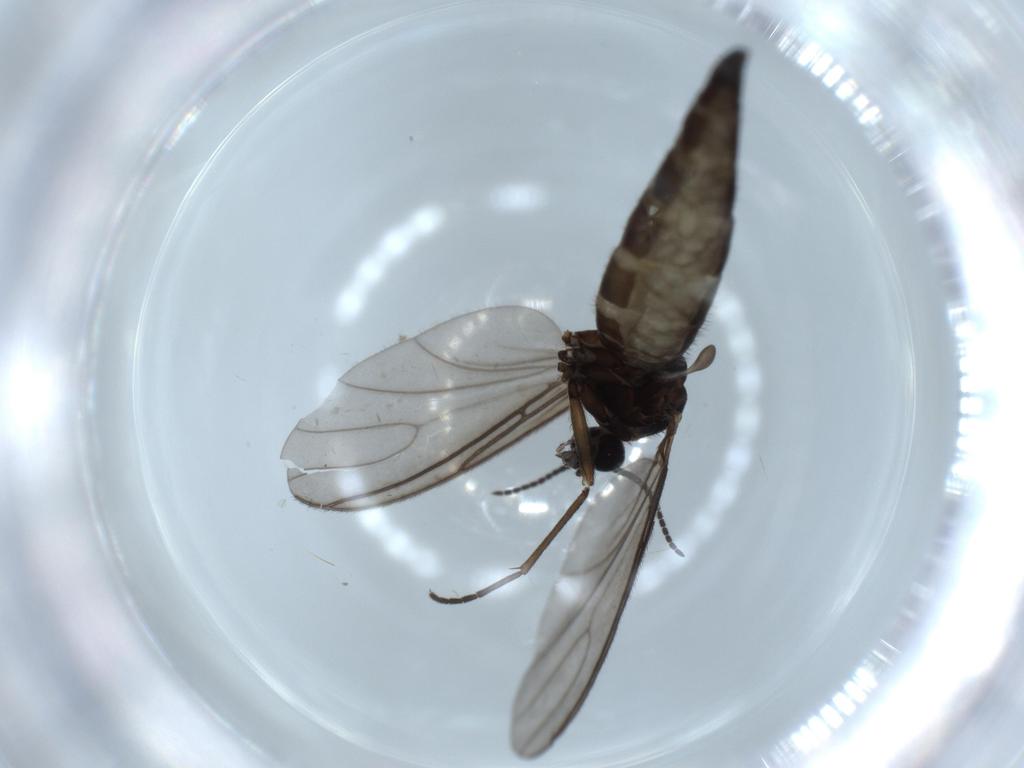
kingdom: Animalia
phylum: Arthropoda
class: Insecta
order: Diptera
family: Sciaridae
